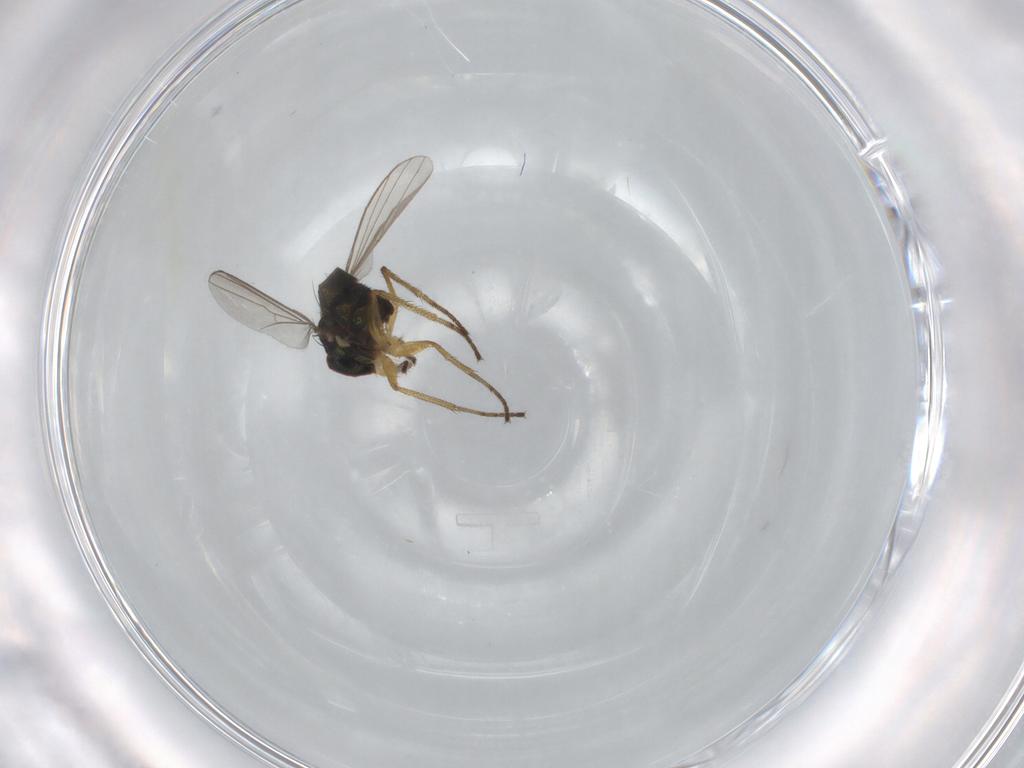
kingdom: Animalia
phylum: Arthropoda
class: Insecta
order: Diptera
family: Dolichopodidae
